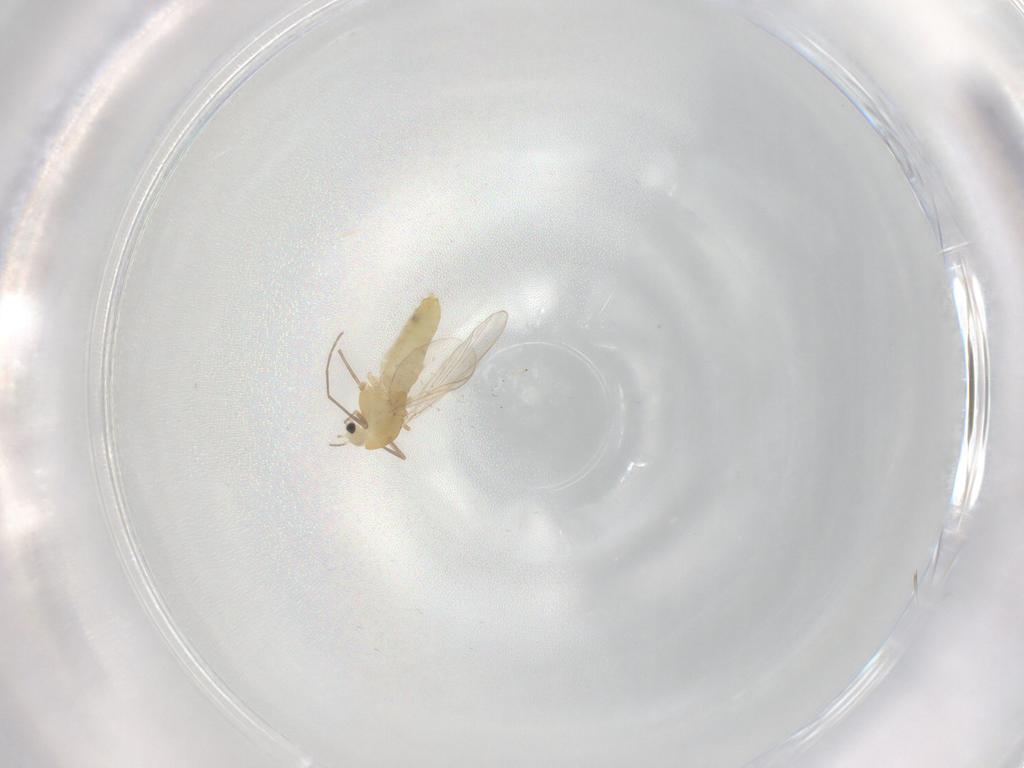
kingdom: Animalia
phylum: Arthropoda
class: Insecta
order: Diptera
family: Chironomidae
